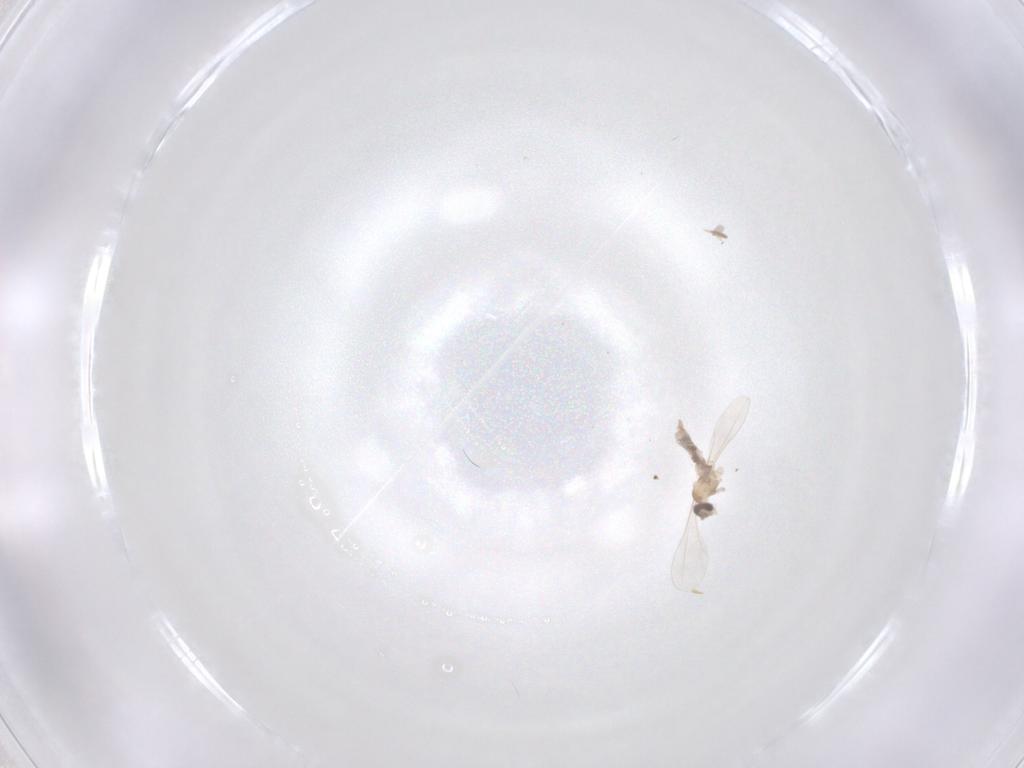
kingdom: Animalia
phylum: Arthropoda
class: Insecta
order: Diptera
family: Cecidomyiidae
